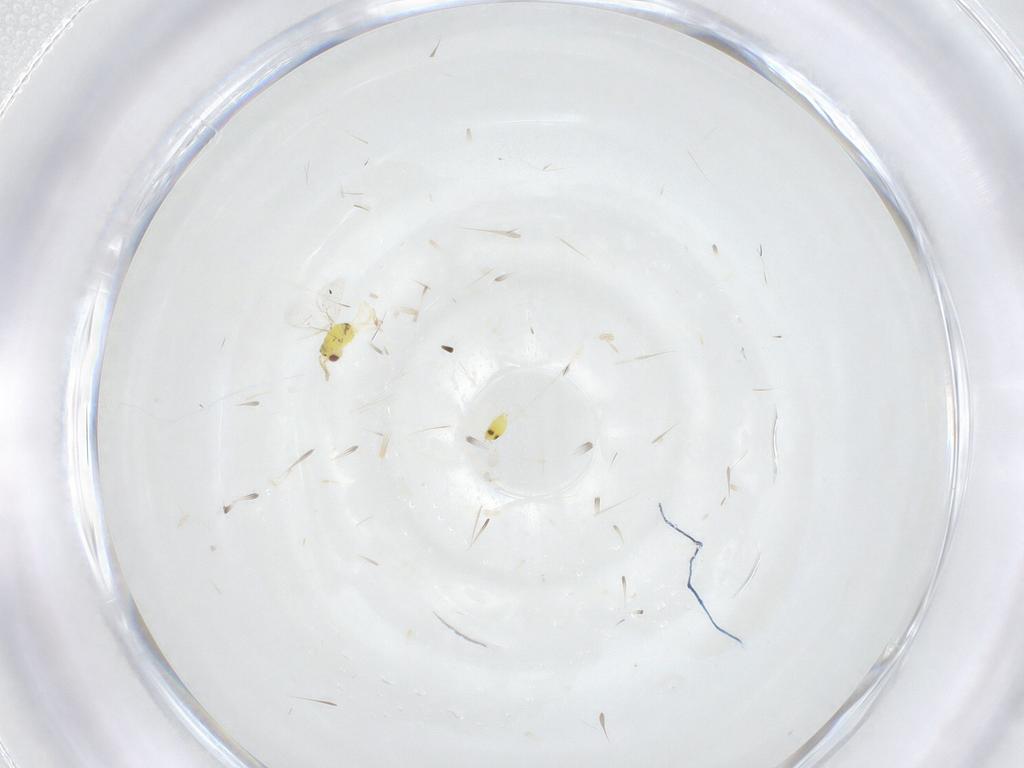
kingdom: Animalia
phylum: Arthropoda
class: Insecta
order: Hymenoptera
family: Eulophidae
